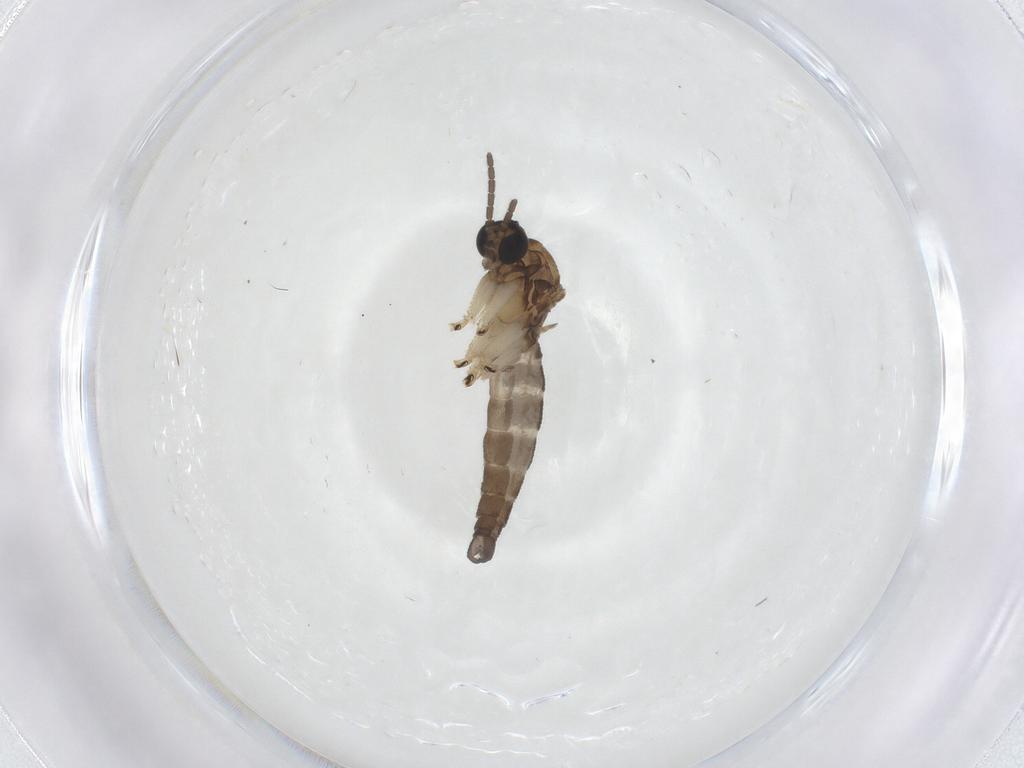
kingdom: Animalia
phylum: Arthropoda
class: Insecta
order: Diptera
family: Sciaridae
